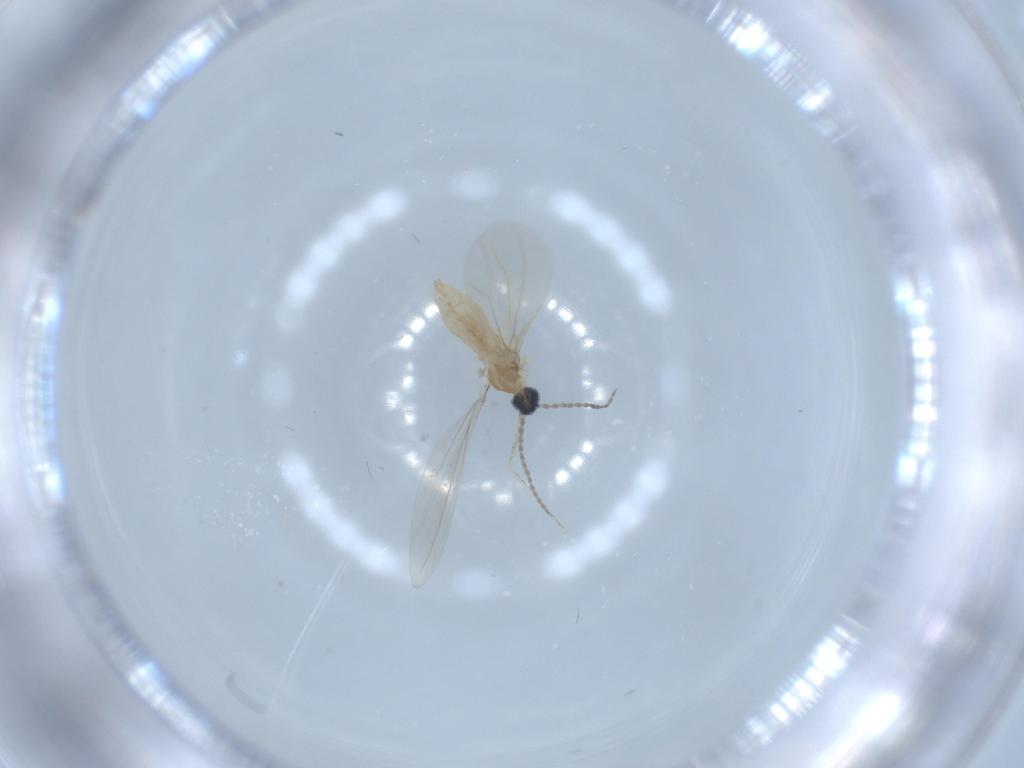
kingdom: Animalia
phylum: Arthropoda
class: Insecta
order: Diptera
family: Cecidomyiidae
